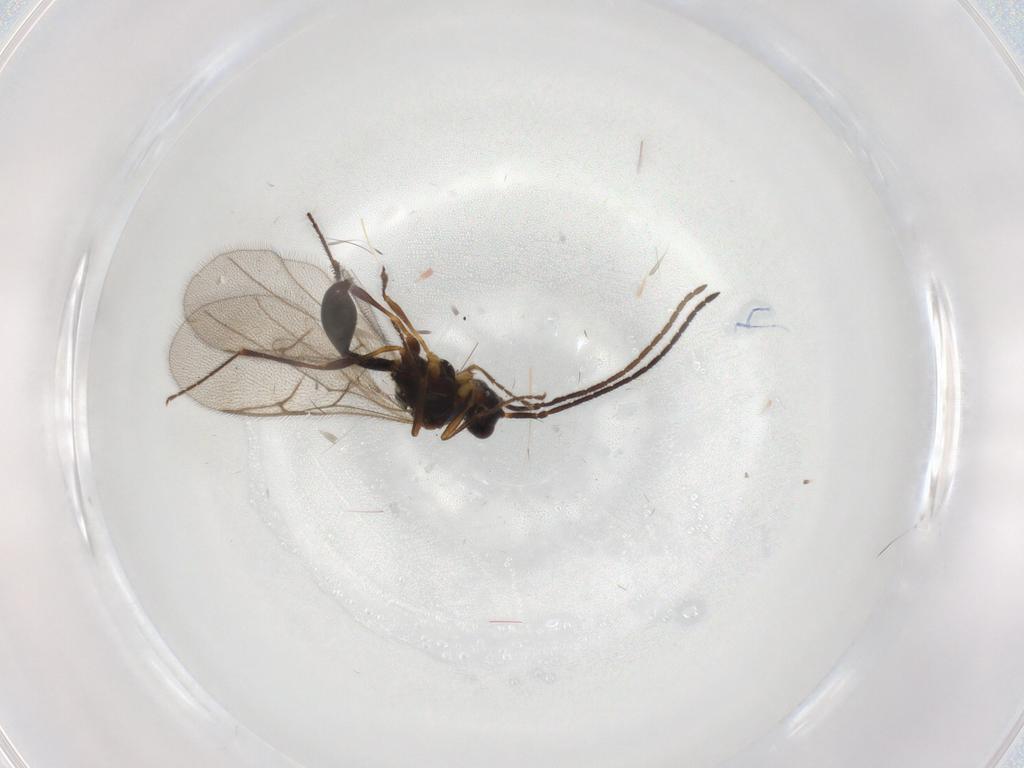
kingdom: Animalia
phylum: Arthropoda
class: Insecta
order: Hymenoptera
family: Diapriidae
